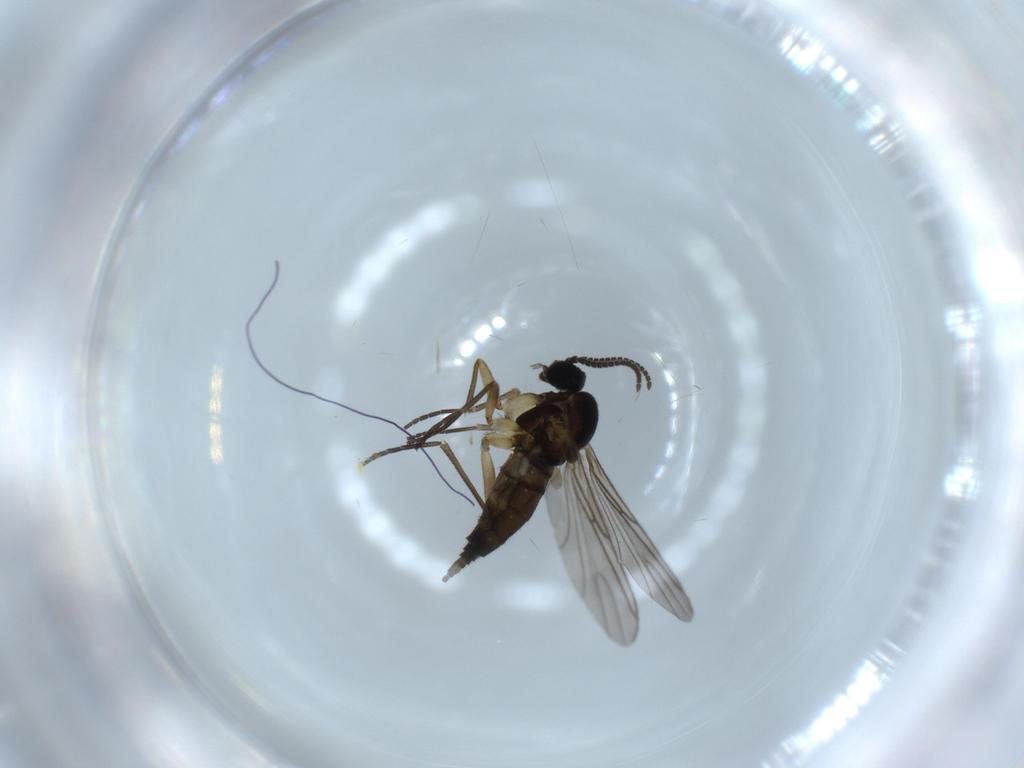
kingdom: Animalia
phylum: Arthropoda
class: Insecta
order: Diptera
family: Sciaridae
